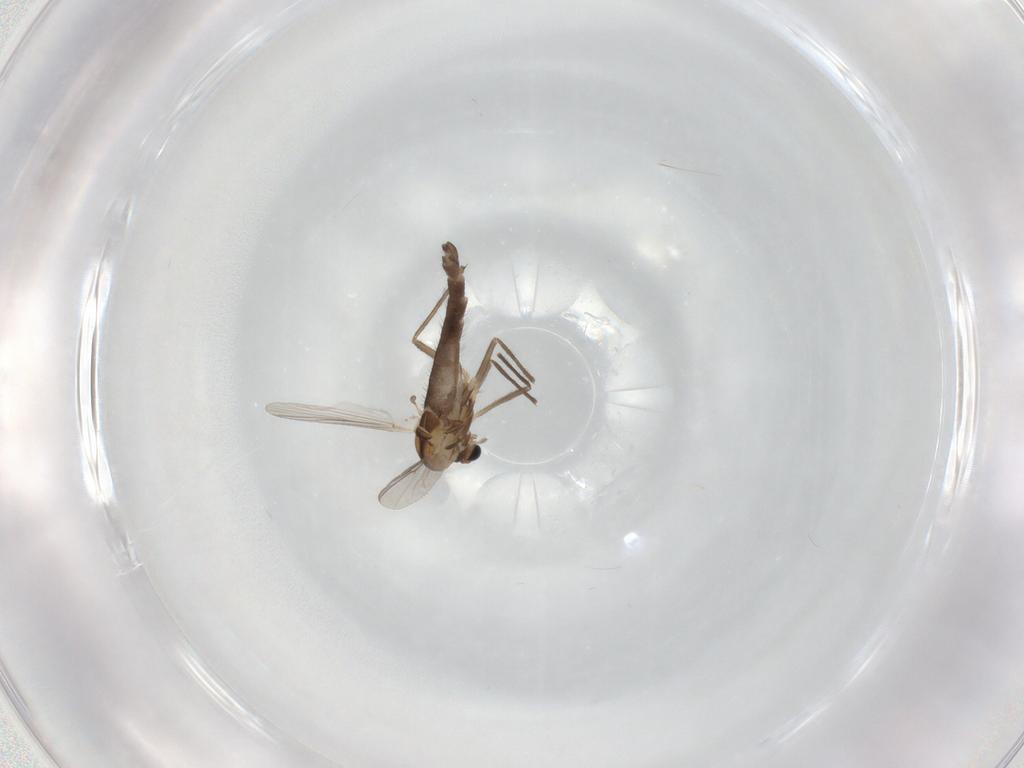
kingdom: Animalia
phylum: Arthropoda
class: Insecta
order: Diptera
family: Chironomidae
